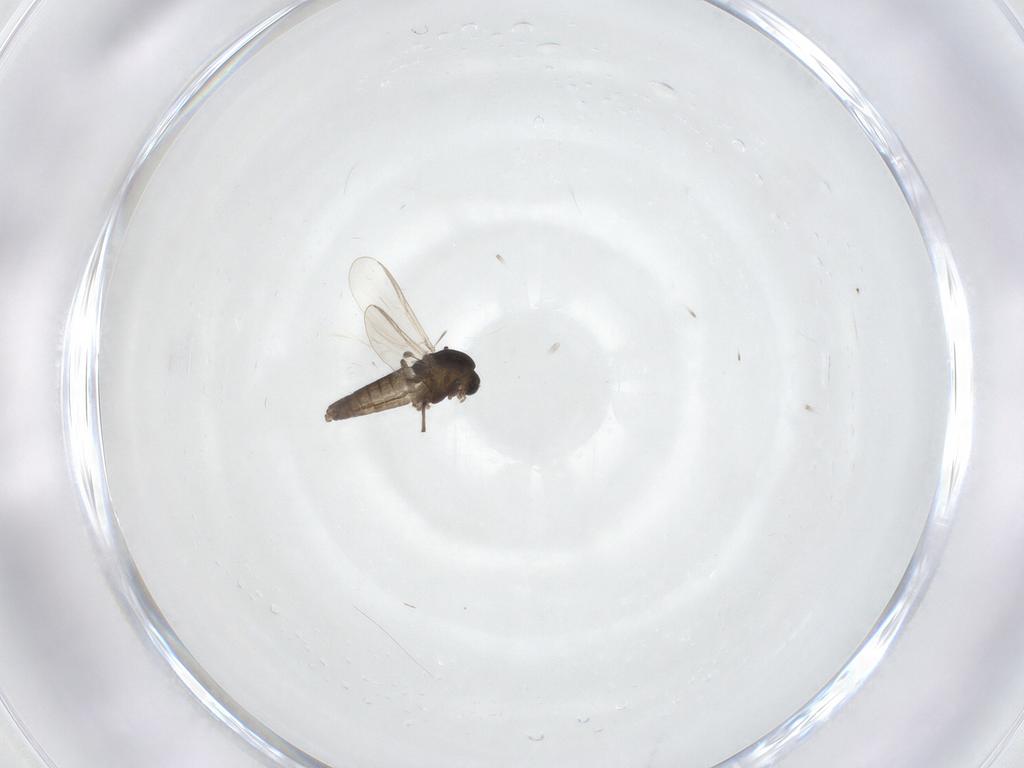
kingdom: Animalia
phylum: Arthropoda
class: Insecta
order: Diptera
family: Chironomidae
